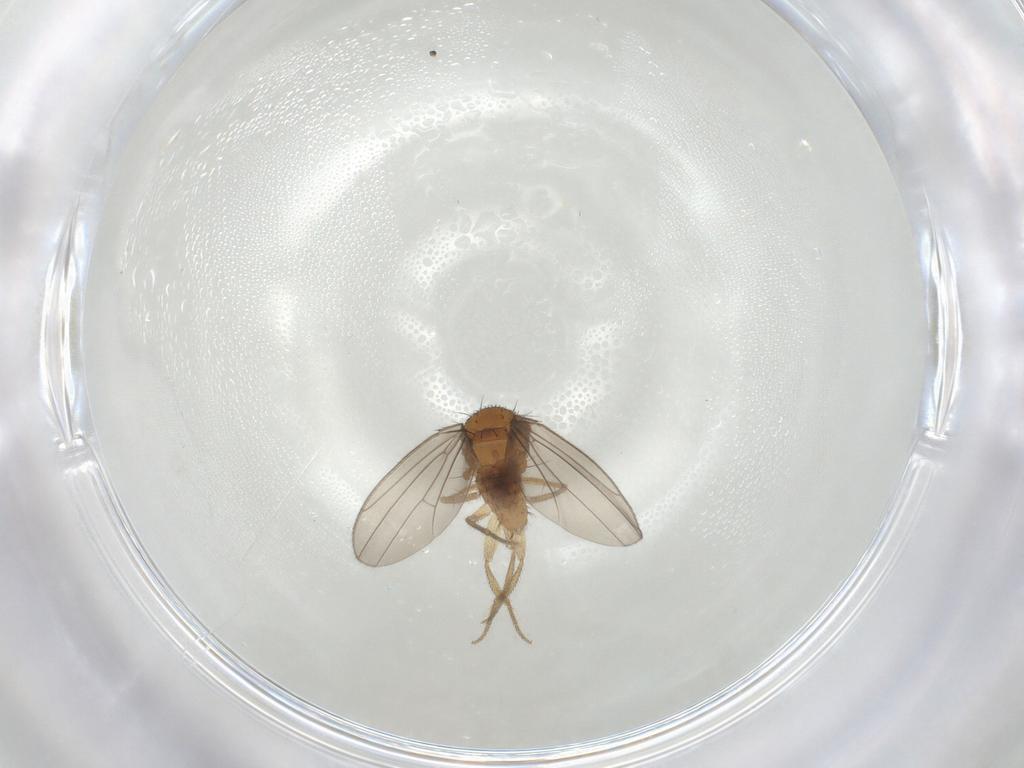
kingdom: Animalia
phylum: Arthropoda
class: Insecta
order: Diptera
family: Drosophilidae
